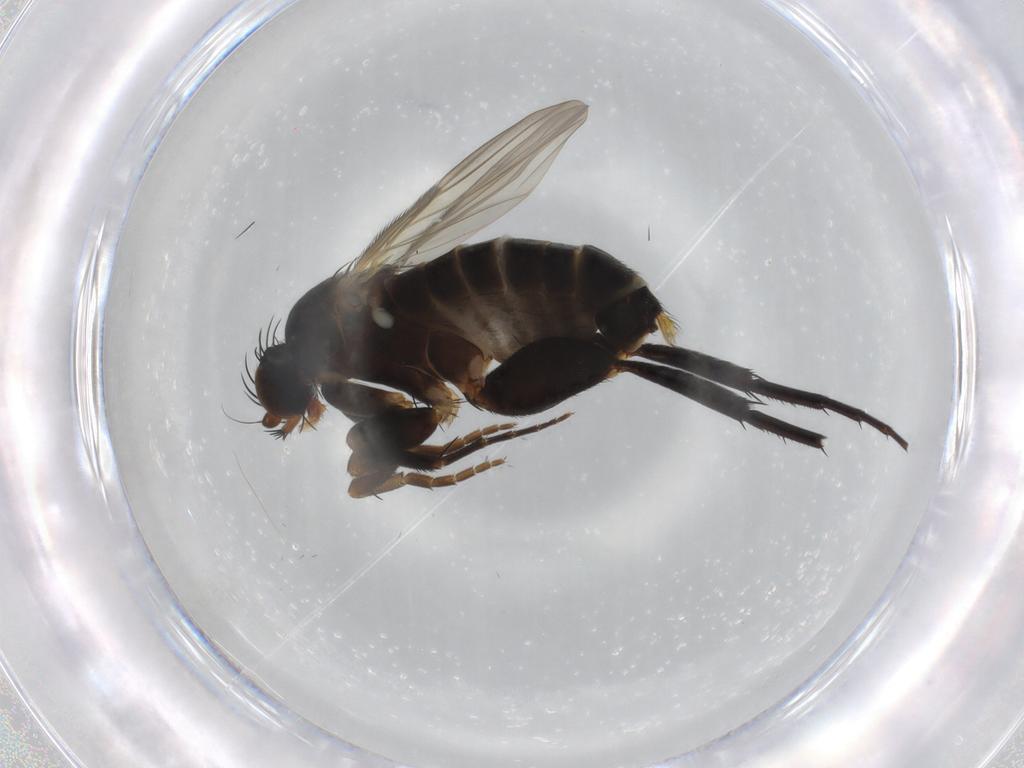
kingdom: Animalia
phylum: Arthropoda
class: Insecta
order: Diptera
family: Phoridae
